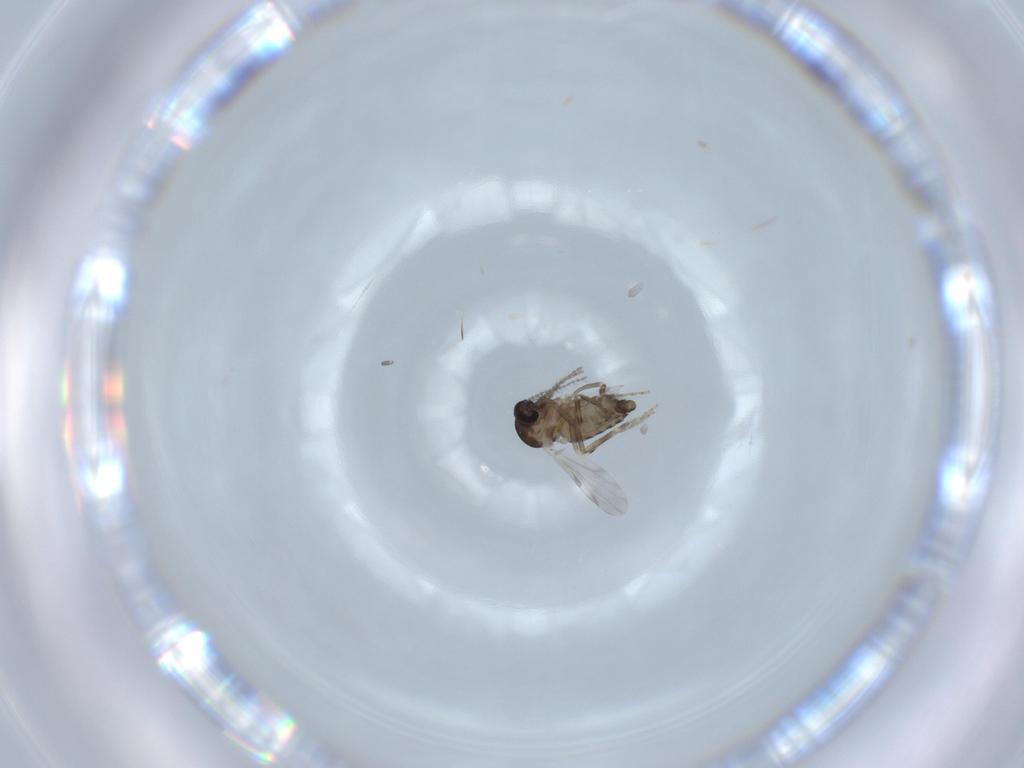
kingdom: Animalia
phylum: Arthropoda
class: Insecta
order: Diptera
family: Ceratopogonidae
